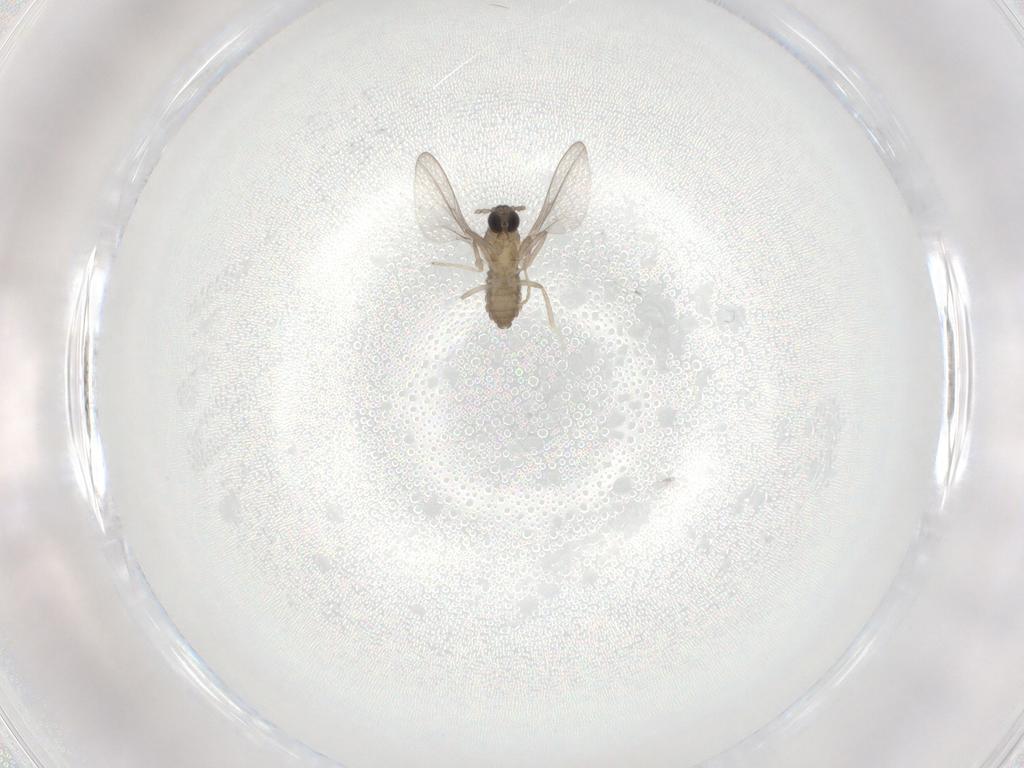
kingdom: Animalia
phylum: Arthropoda
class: Insecta
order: Diptera
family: Cecidomyiidae
